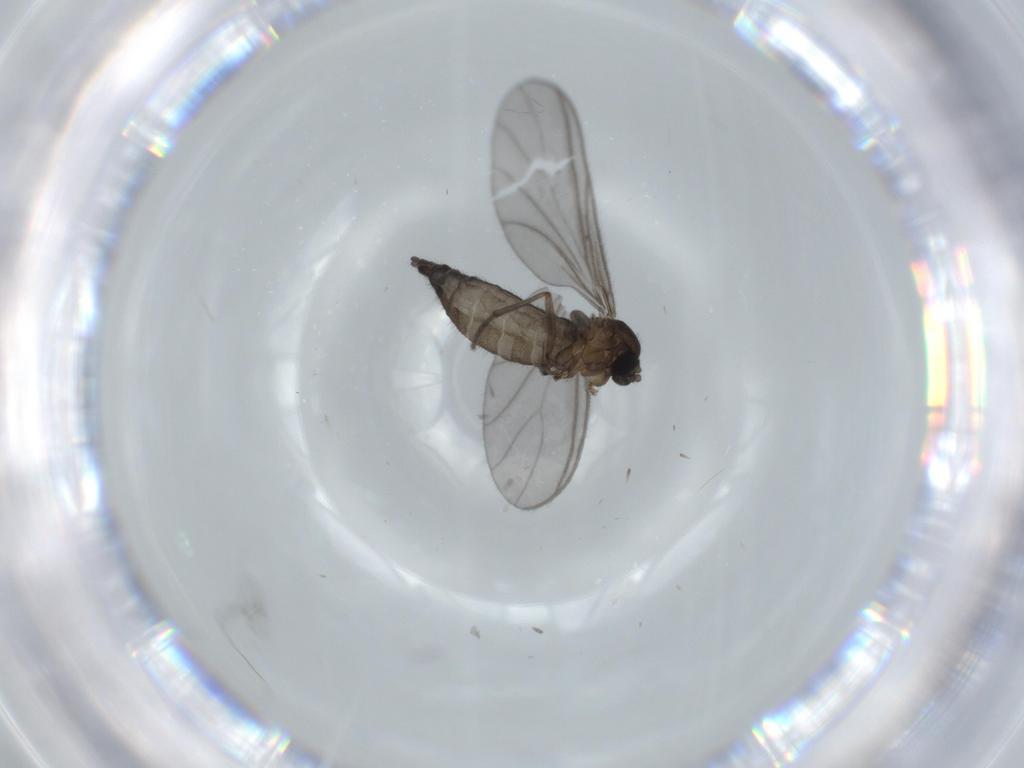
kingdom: Animalia
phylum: Arthropoda
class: Insecta
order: Diptera
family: Sciaridae
